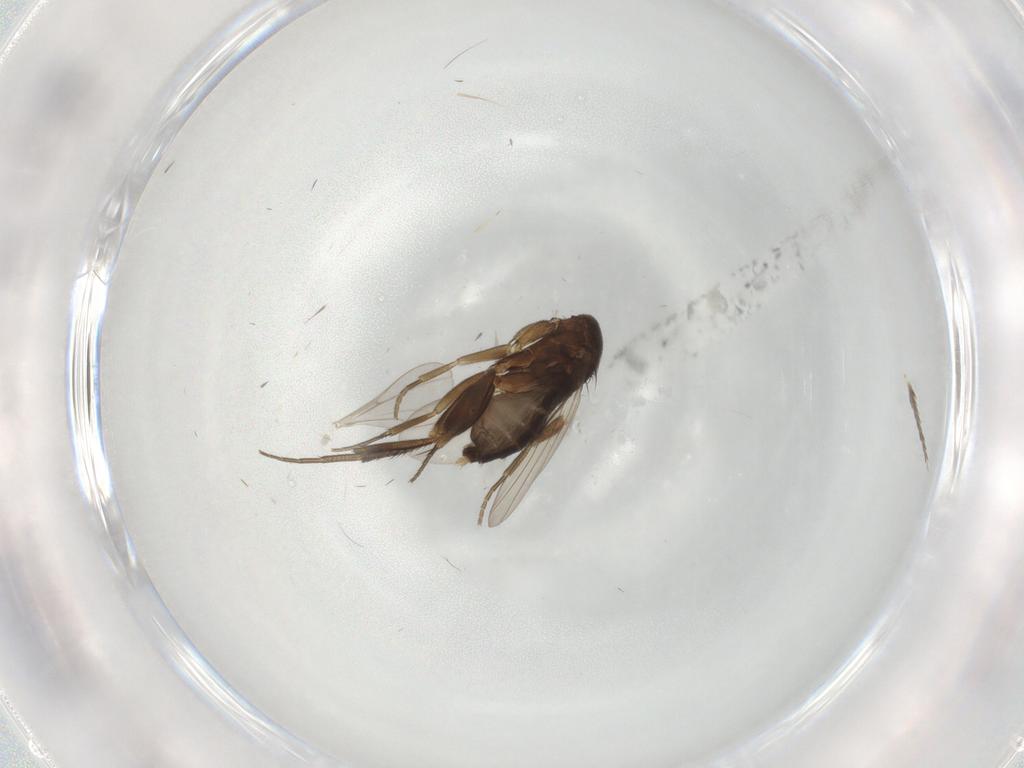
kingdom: Animalia
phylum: Arthropoda
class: Insecta
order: Diptera
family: Phoridae
